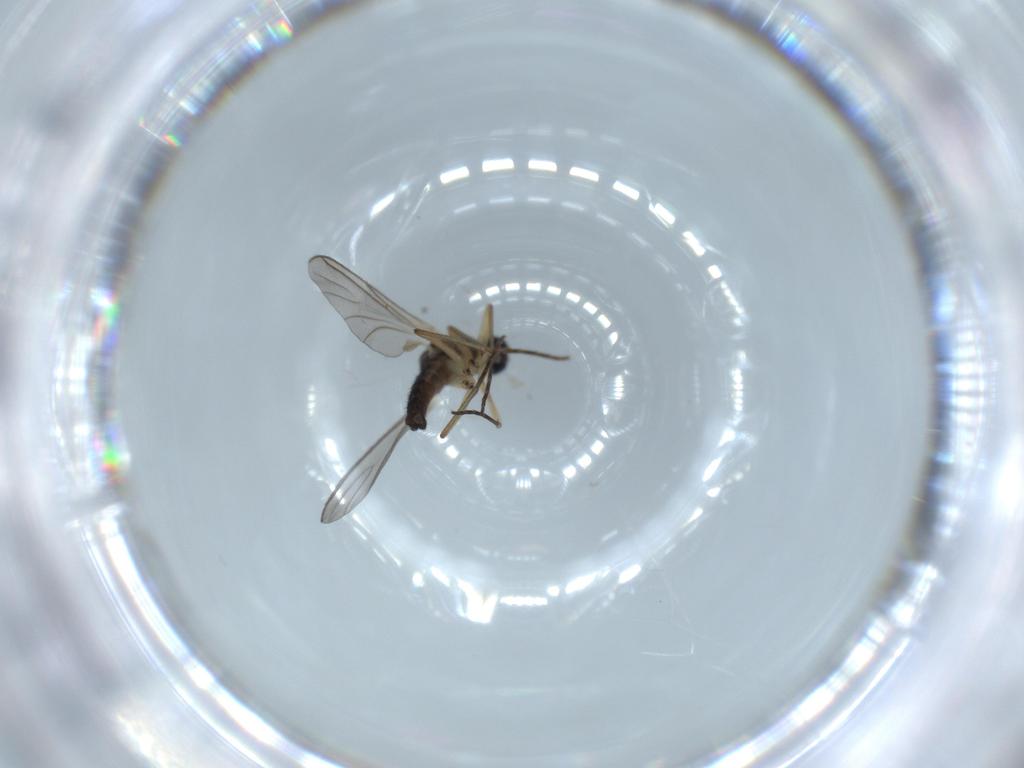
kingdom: Animalia
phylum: Arthropoda
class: Insecta
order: Diptera
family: Sciaridae
